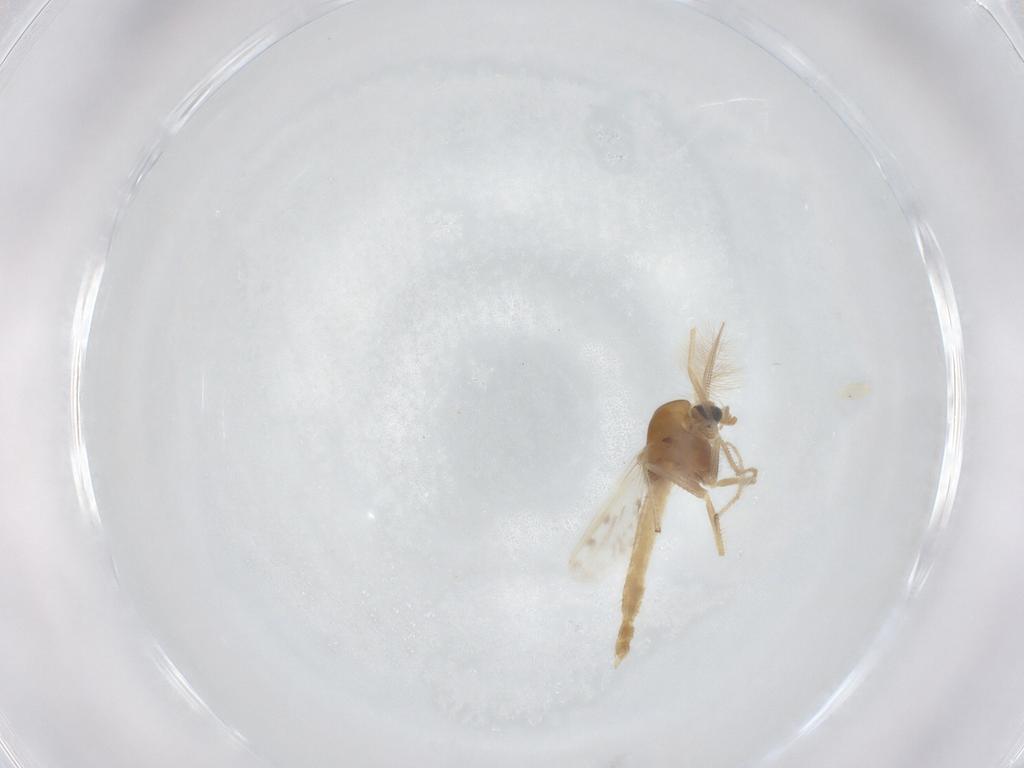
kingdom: Animalia
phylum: Arthropoda
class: Insecta
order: Diptera
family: Chironomidae
